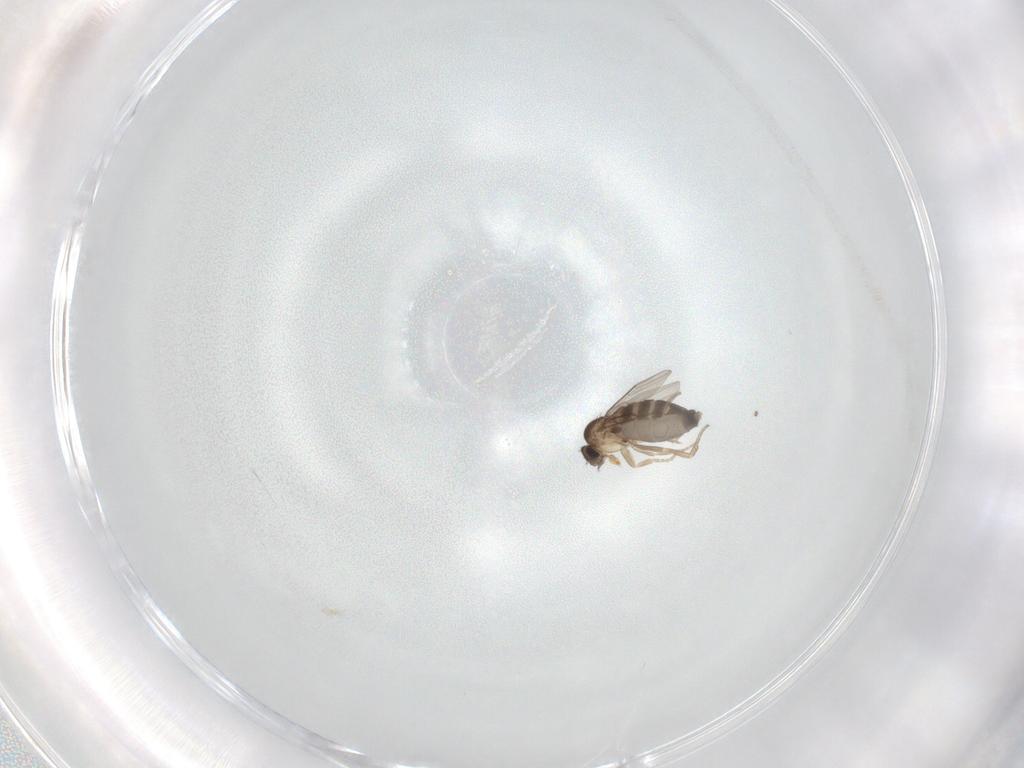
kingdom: Animalia
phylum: Arthropoda
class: Insecta
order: Diptera
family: Phoridae
